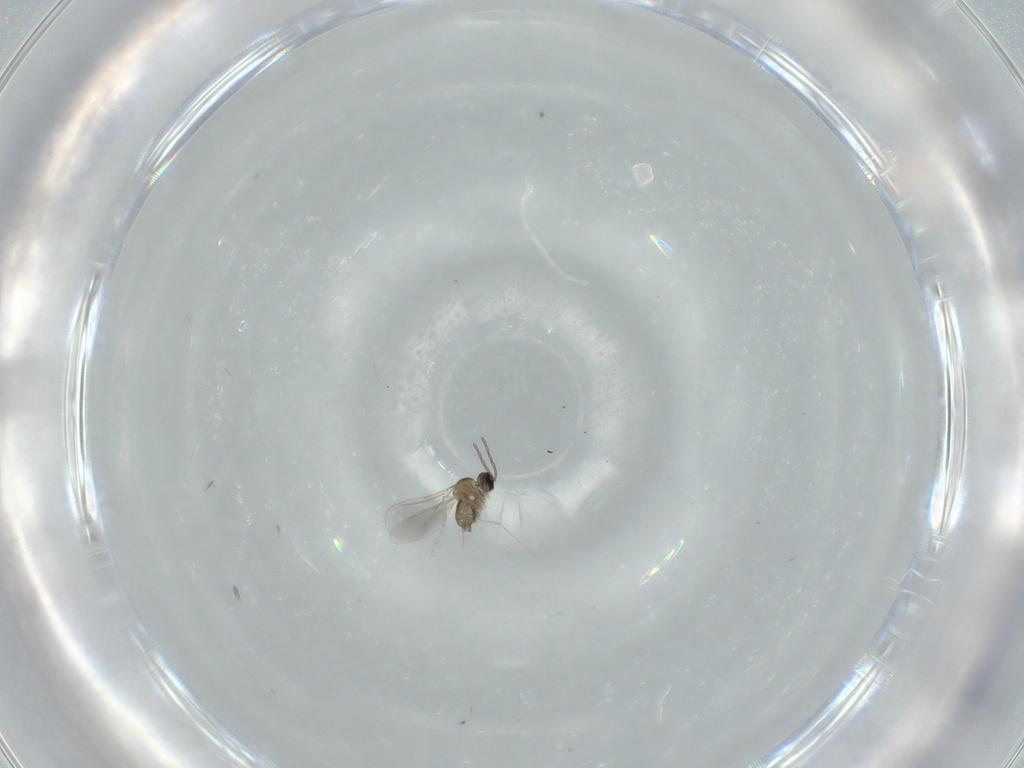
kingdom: Animalia
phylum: Arthropoda
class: Insecta
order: Diptera
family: Cecidomyiidae
